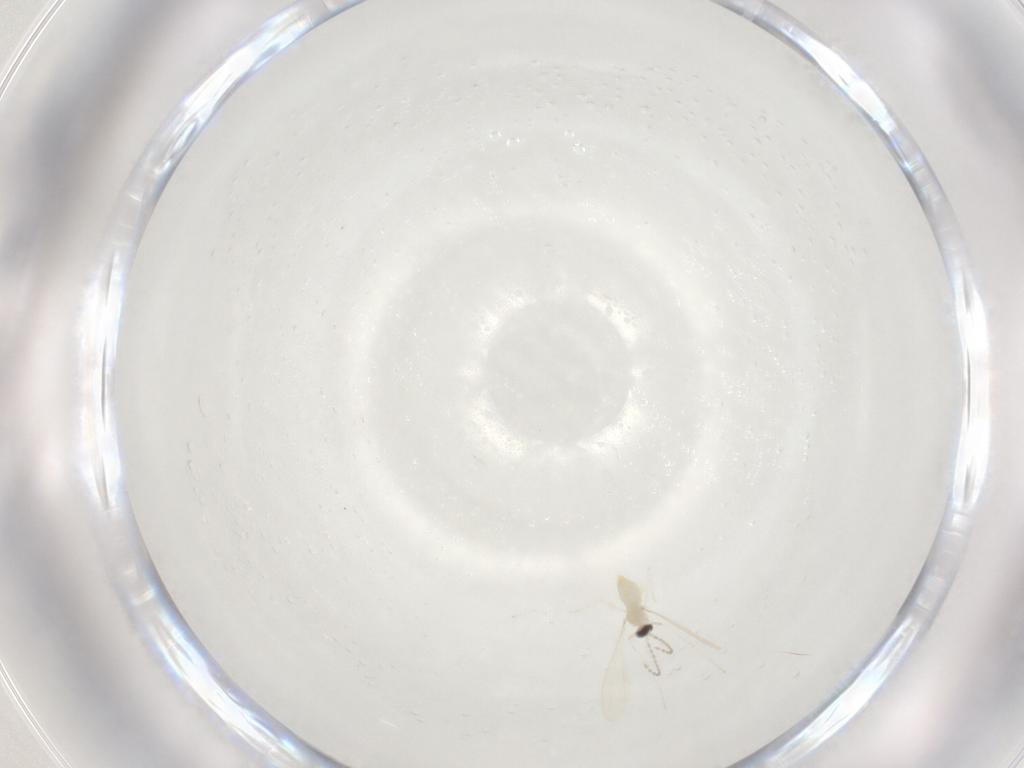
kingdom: Animalia
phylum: Arthropoda
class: Insecta
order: Diptera
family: Cecidomyiidae
